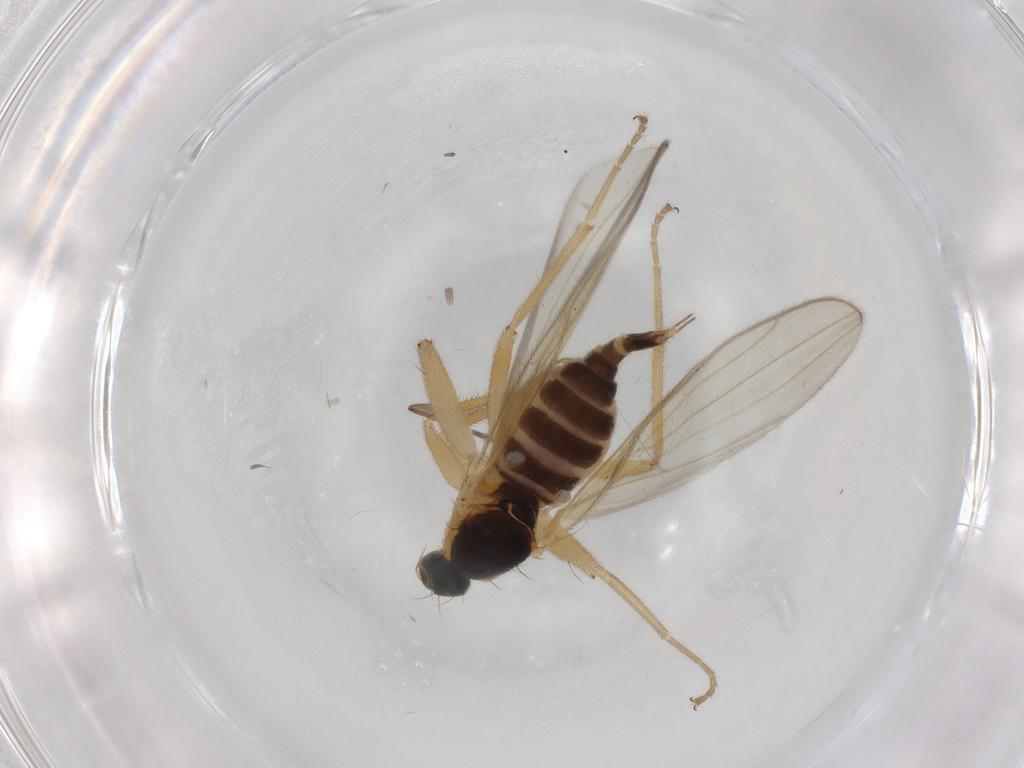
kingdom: Animalia
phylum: Arthropoda
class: Insecta
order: Diptera
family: Hybotidae
